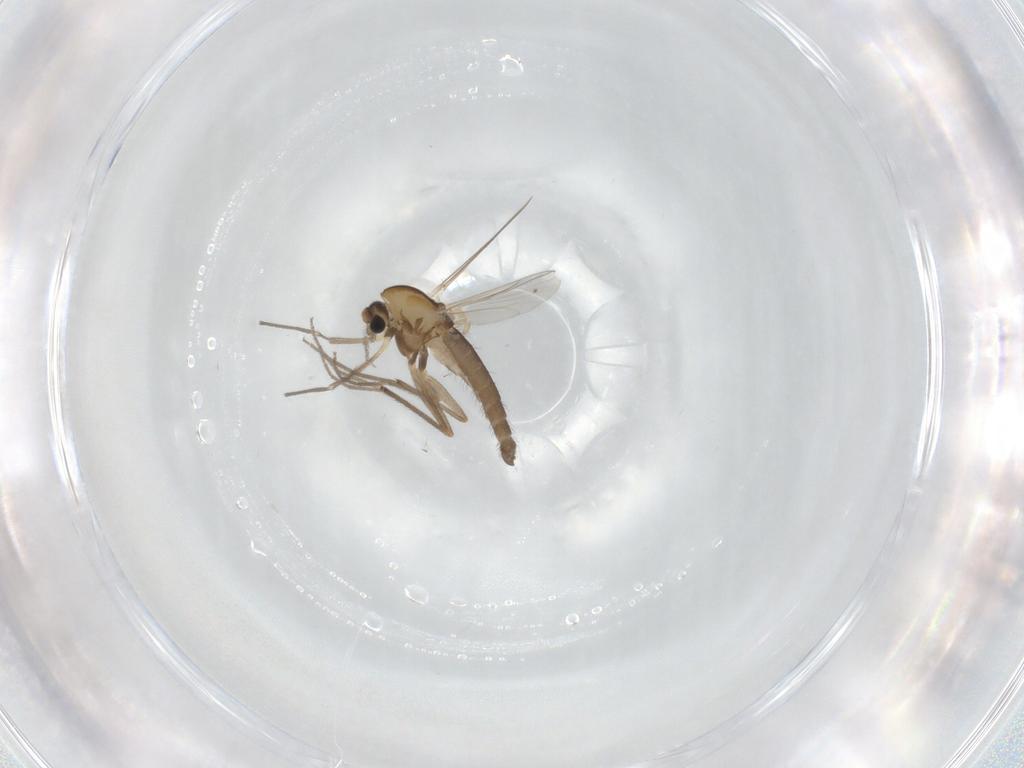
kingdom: Animalia
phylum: Arthropoda
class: Insecta
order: Diptera
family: Chironomidae
